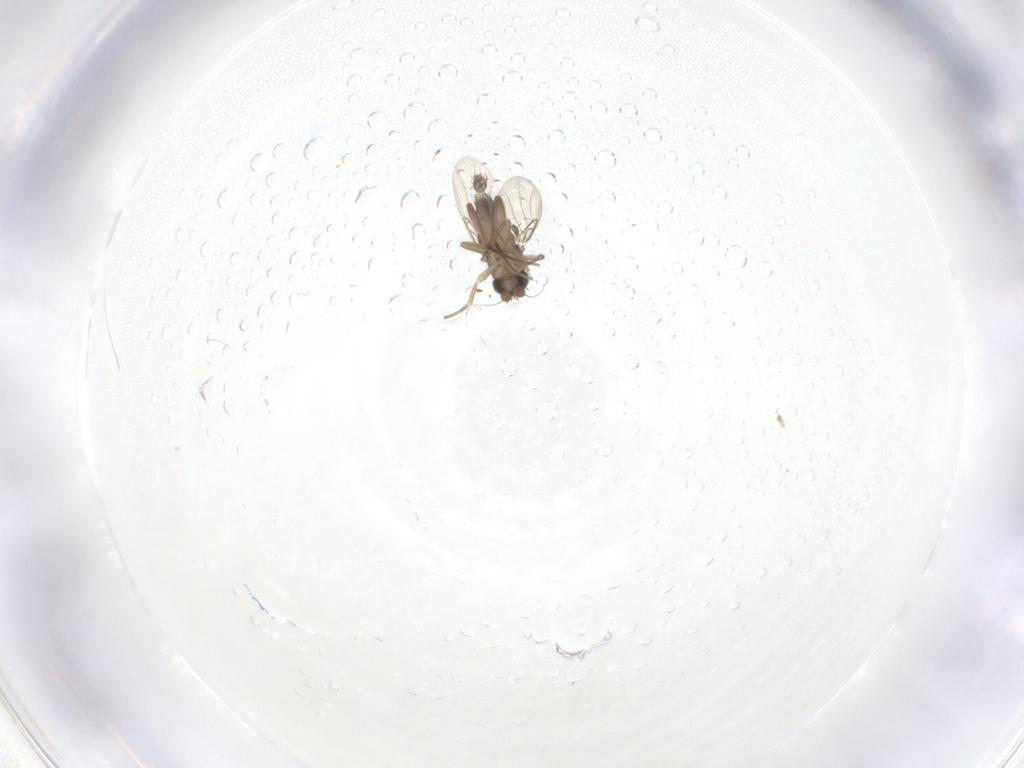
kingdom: Animalia
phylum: Arthropoda
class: Insecta
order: Diptera
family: Phoridae
